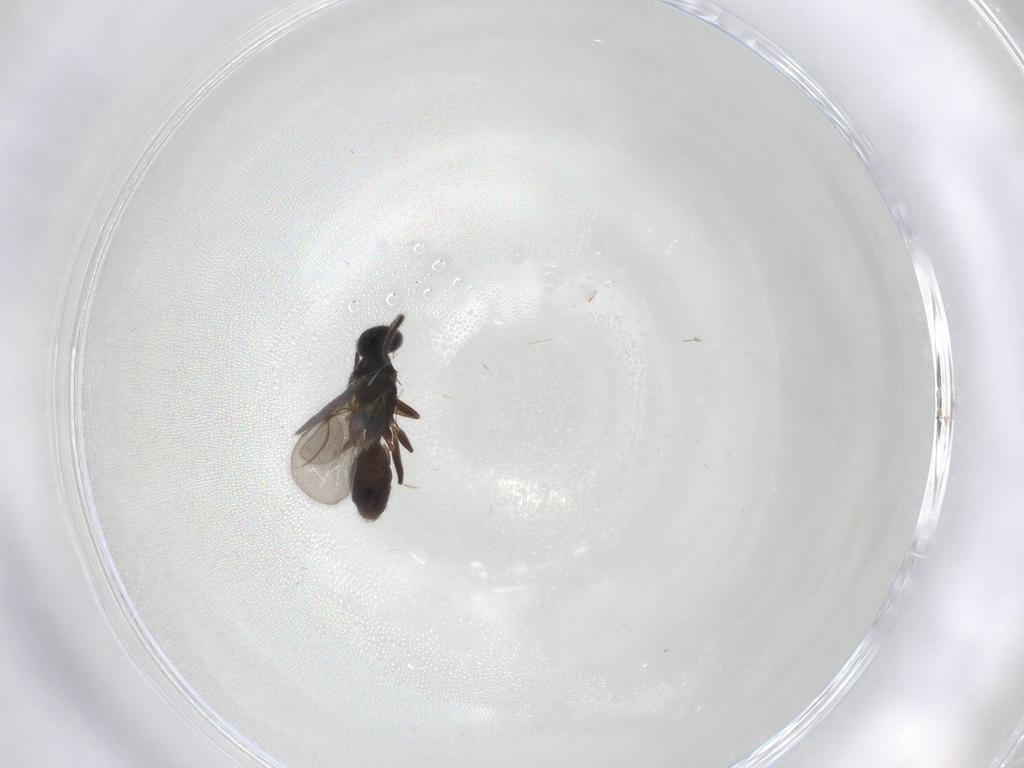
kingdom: Animalia
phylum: Arthropoda
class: Insecta
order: Hymenoptera
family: Bethylidae
